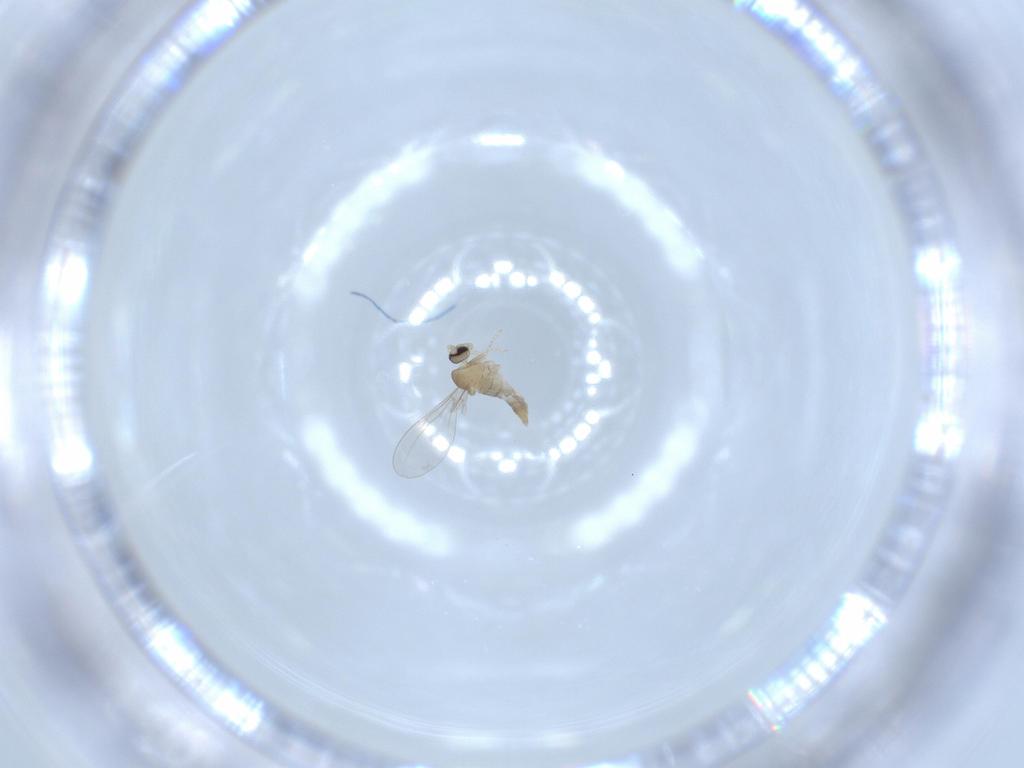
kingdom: Animalia
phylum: Arthropoda
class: Insecta
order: Diptera
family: Cecidomyiidae
